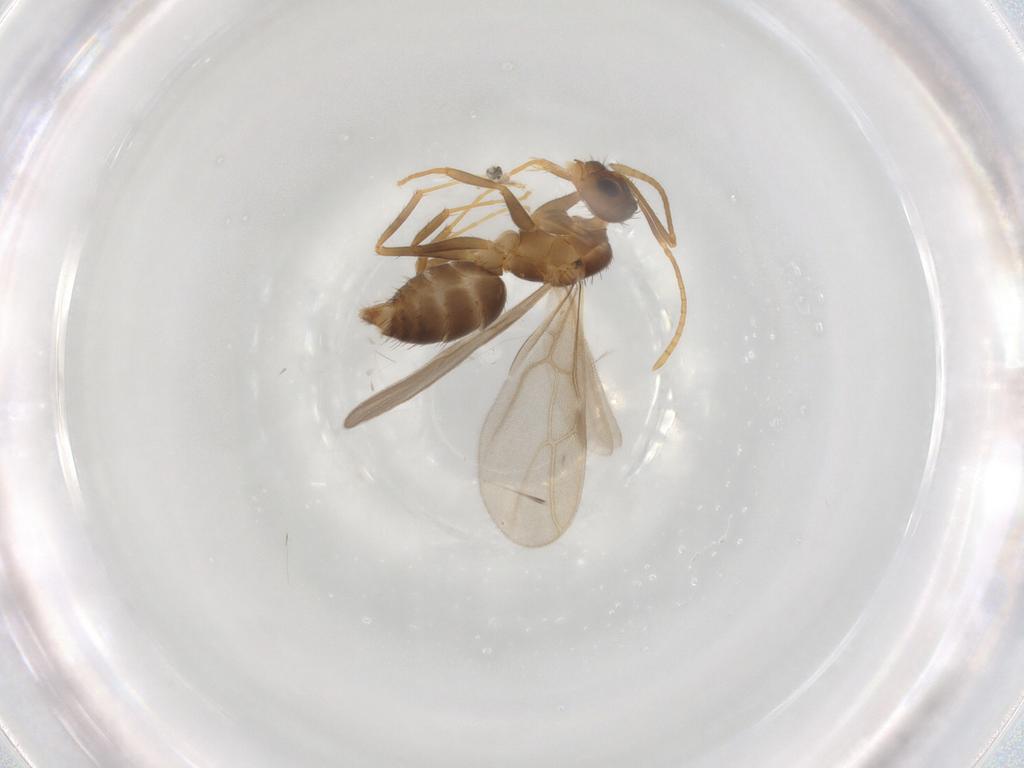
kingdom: Animalia
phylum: Arthropoda
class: Insecta
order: Hymenoptera
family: Formicidae
